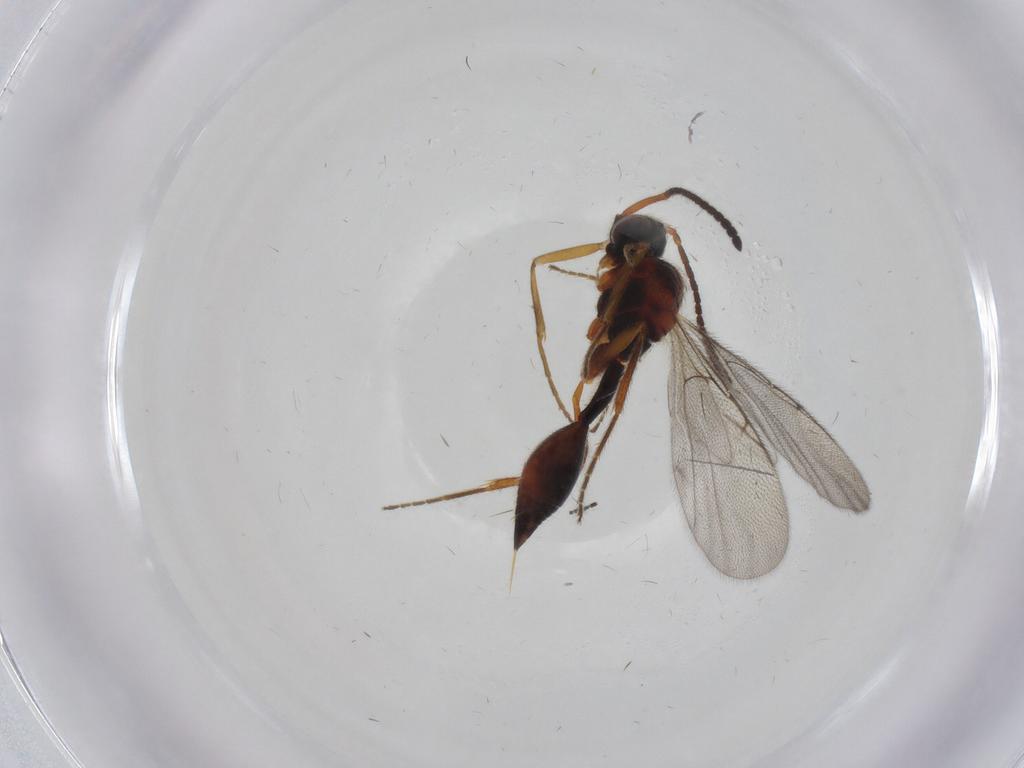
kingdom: Animalia
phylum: Arthropoda
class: Insecta
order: Hymenoptera
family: Diapriidae
